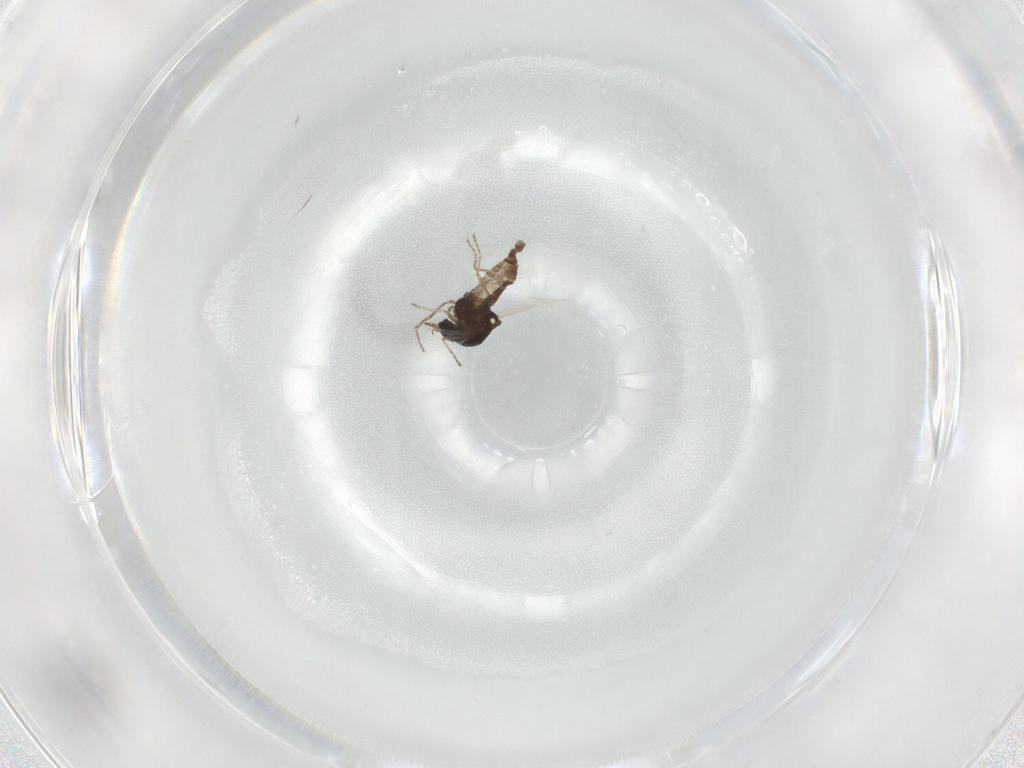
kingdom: Animalia
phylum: Arthropoda
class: Insecta
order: Diptera
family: Ceratopogonidae
